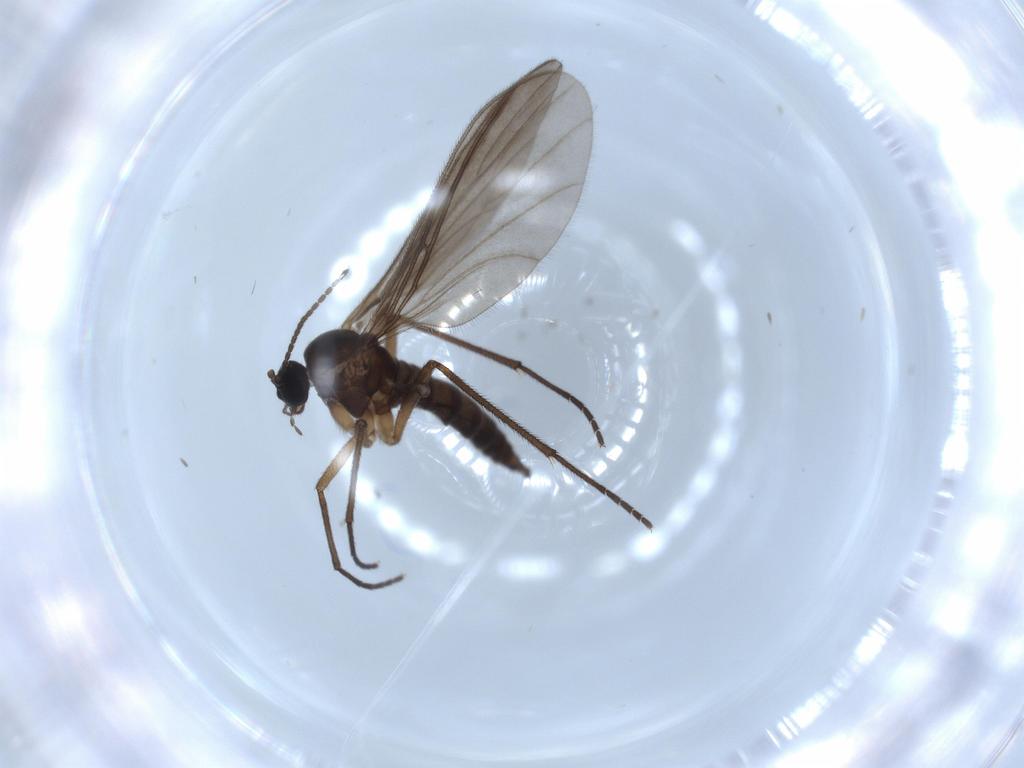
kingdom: Animalia
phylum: Arthropoda
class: Insecta
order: Diptera
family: Sciaridae
